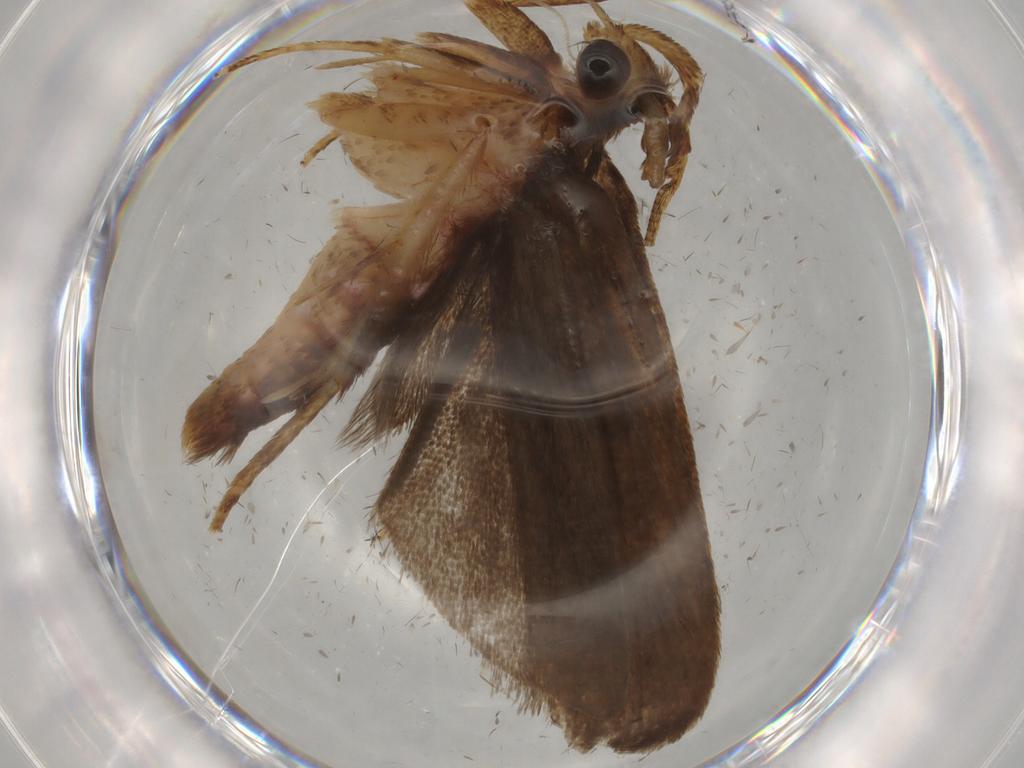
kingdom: Animalia
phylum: Arthropoda
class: Insecta
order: Lepidoptera
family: Autostichidae
